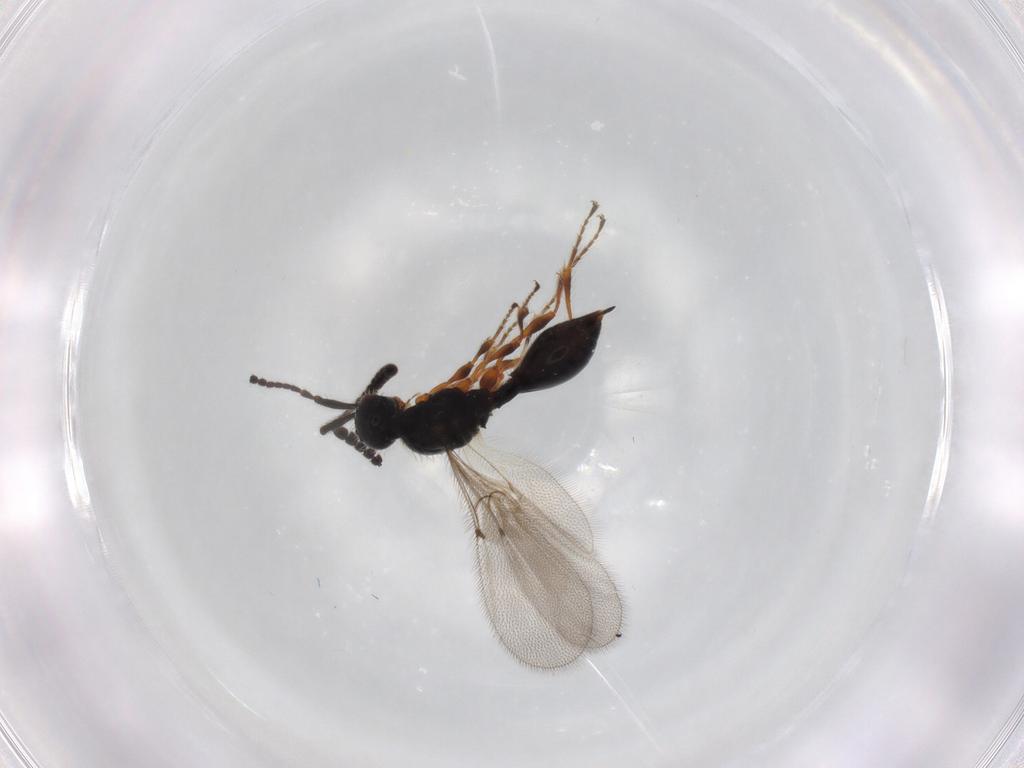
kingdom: Animalia
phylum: Arthropoda
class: Insecta
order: Hymenoptera
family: Diapriidae
